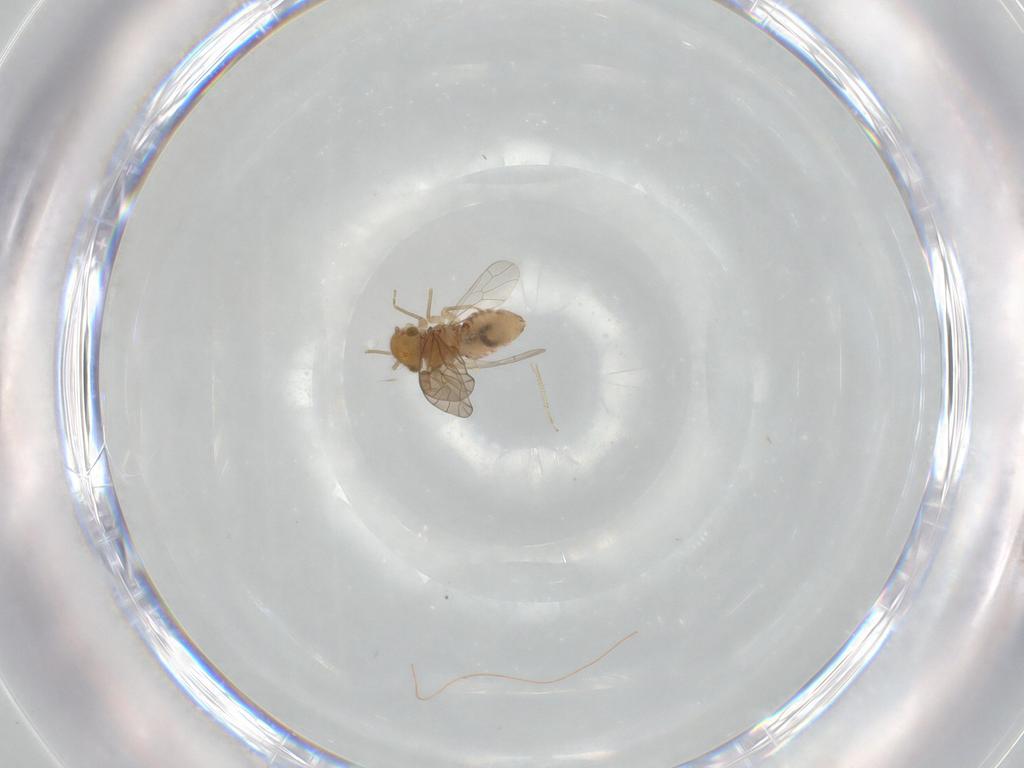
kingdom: Animalia
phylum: Arthropoda
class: Insecta
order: Psocodea
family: Ectopsocidae
